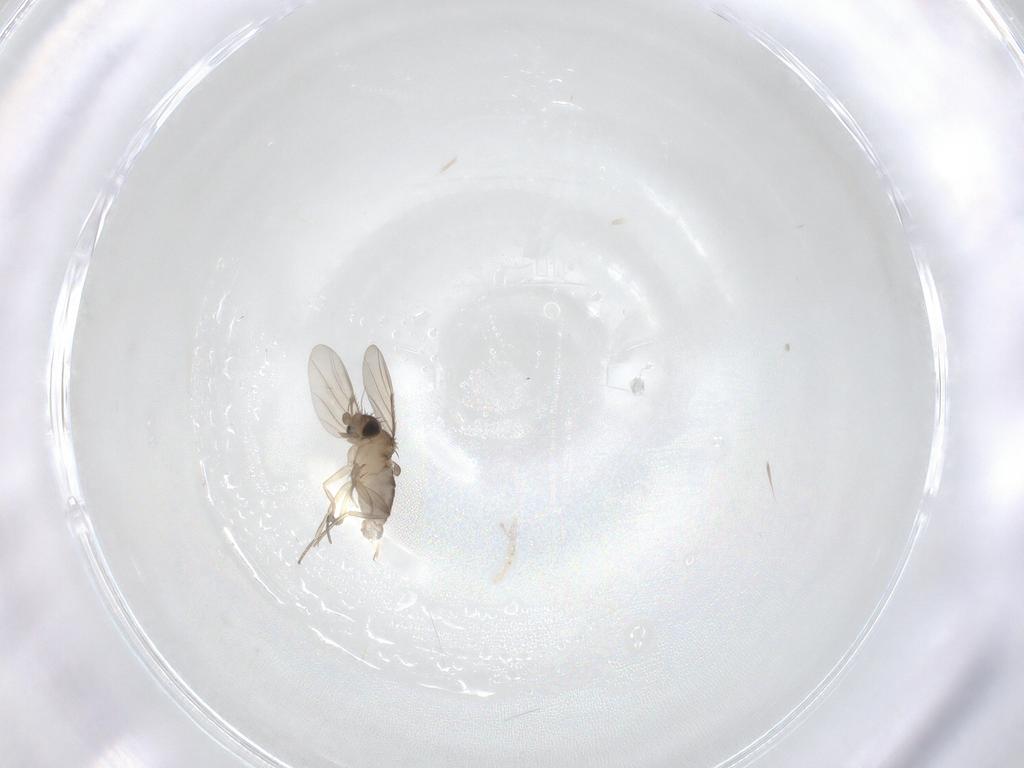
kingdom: Animalia
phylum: Arthropoda
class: Insecta
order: Diptera
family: Phoridae
